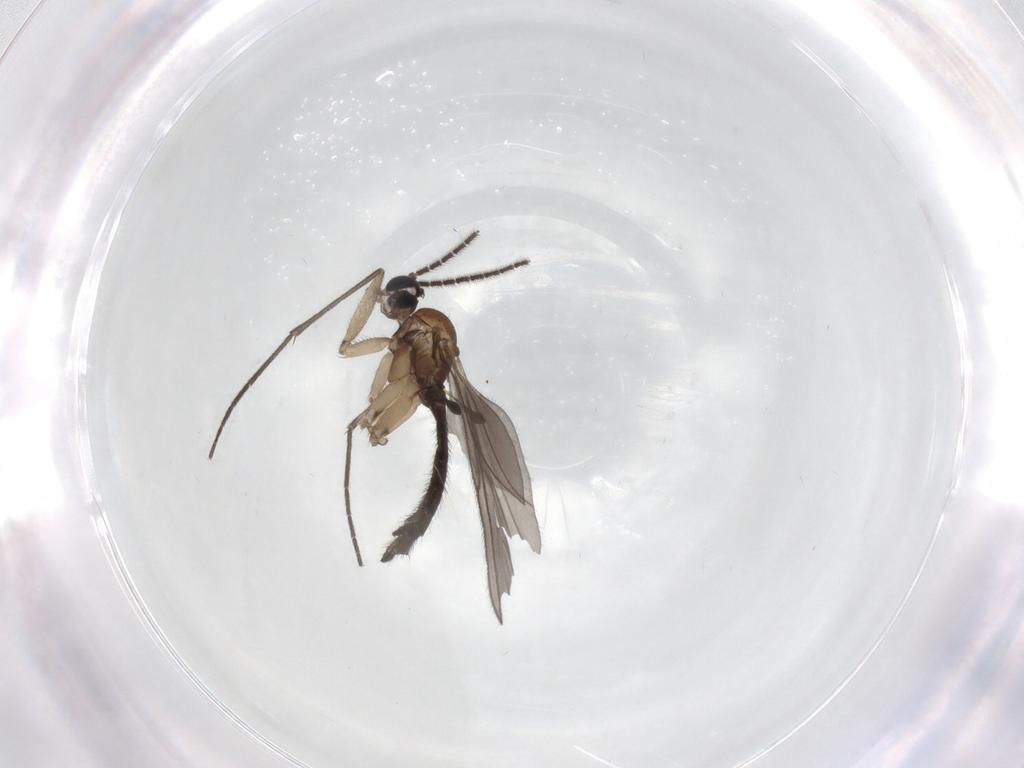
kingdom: Animalia
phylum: Arthropoda
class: Insecta
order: Diptera
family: Sciaridae
